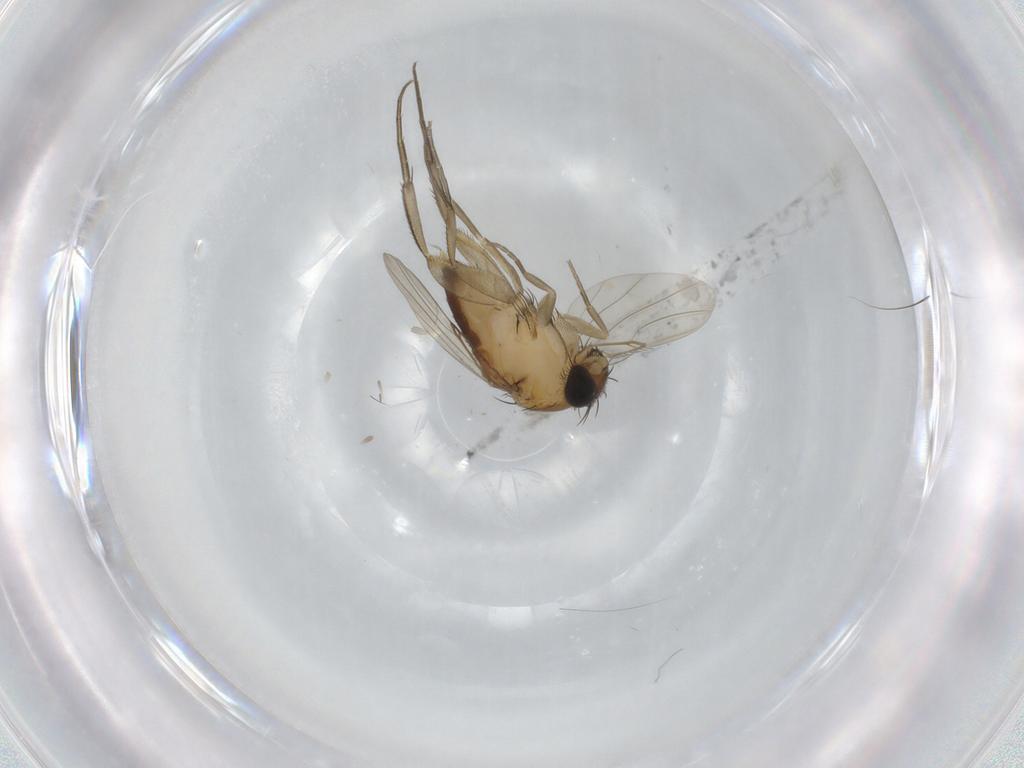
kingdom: Animalia
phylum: Arthropoda
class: Insecta
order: Diptera
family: Phoridae
